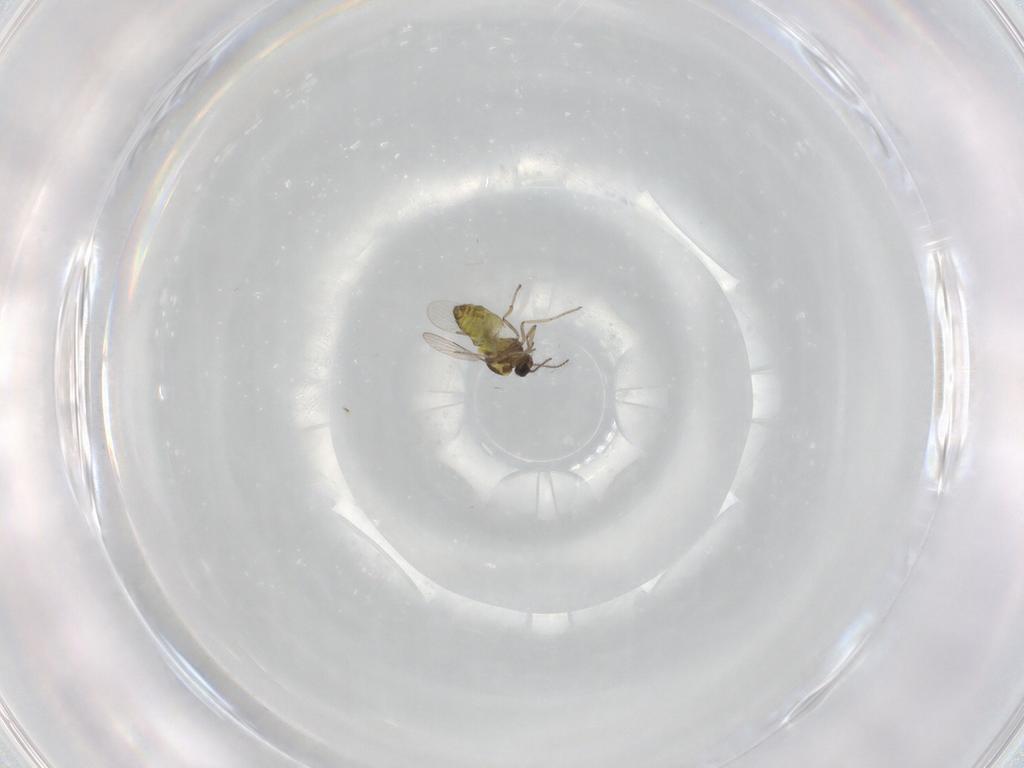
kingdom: Animalia
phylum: Arthropoda
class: Insecta
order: Diptera
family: Ceratopogonidae
